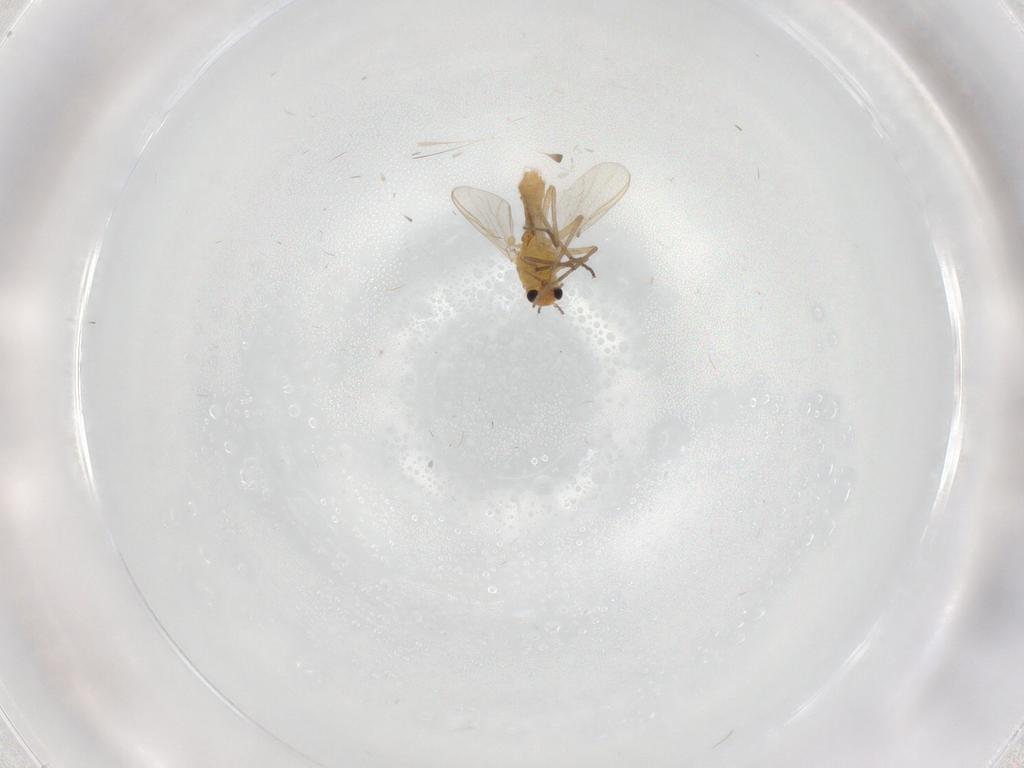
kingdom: Animalia
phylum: Arthropoda
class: Insecta
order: Diptera
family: Chironomidae
